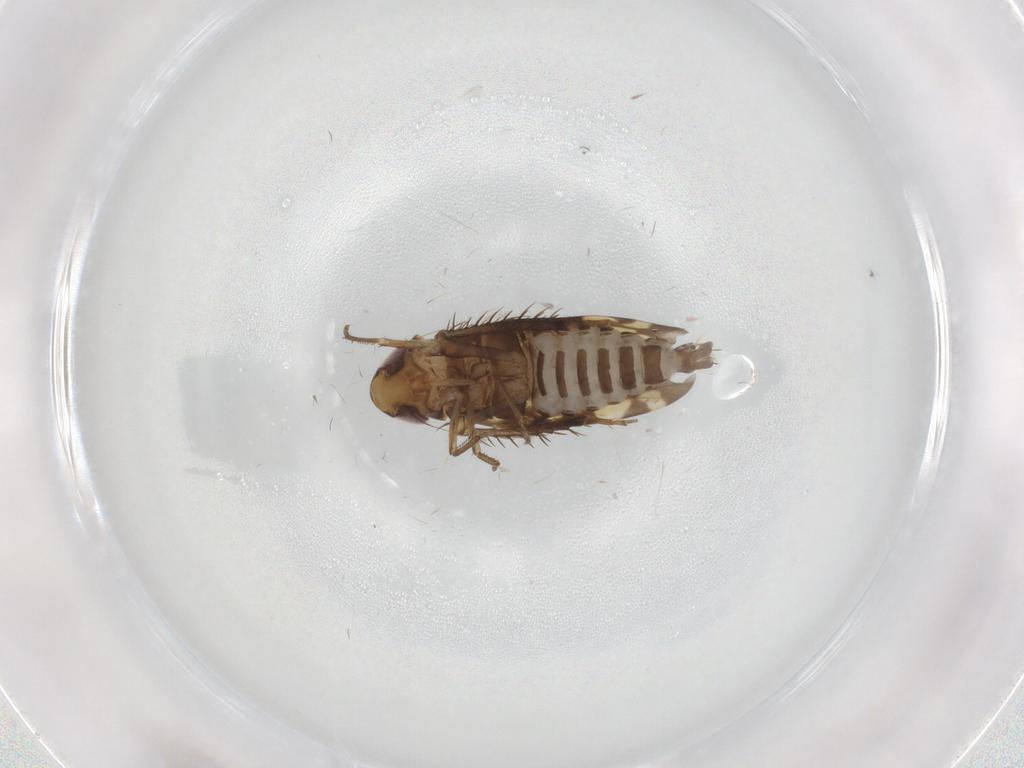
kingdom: Animalia
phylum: Arthropoda
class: Insecta
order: Hemiptera
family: Cicadellidae
